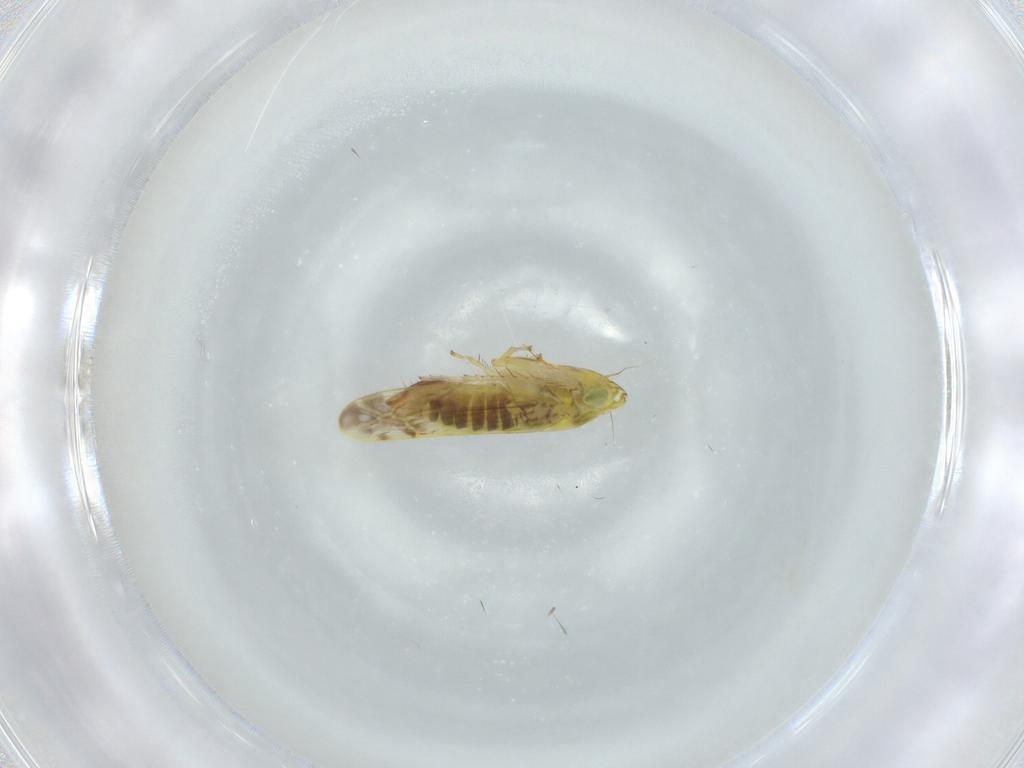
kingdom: Animalia
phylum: Arthropoda
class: Insecta
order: Hemiptera
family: Cicadellidae
